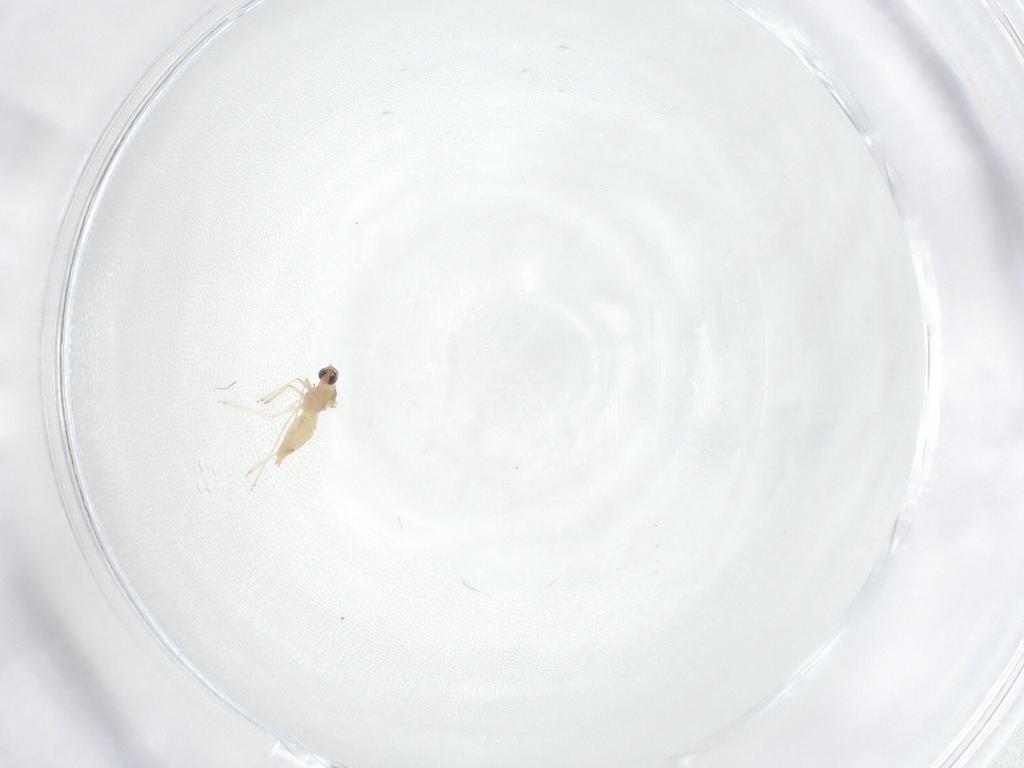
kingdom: Animalia
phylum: Arthropoda
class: Insecta
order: Diptera
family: Cecidomyiidae
